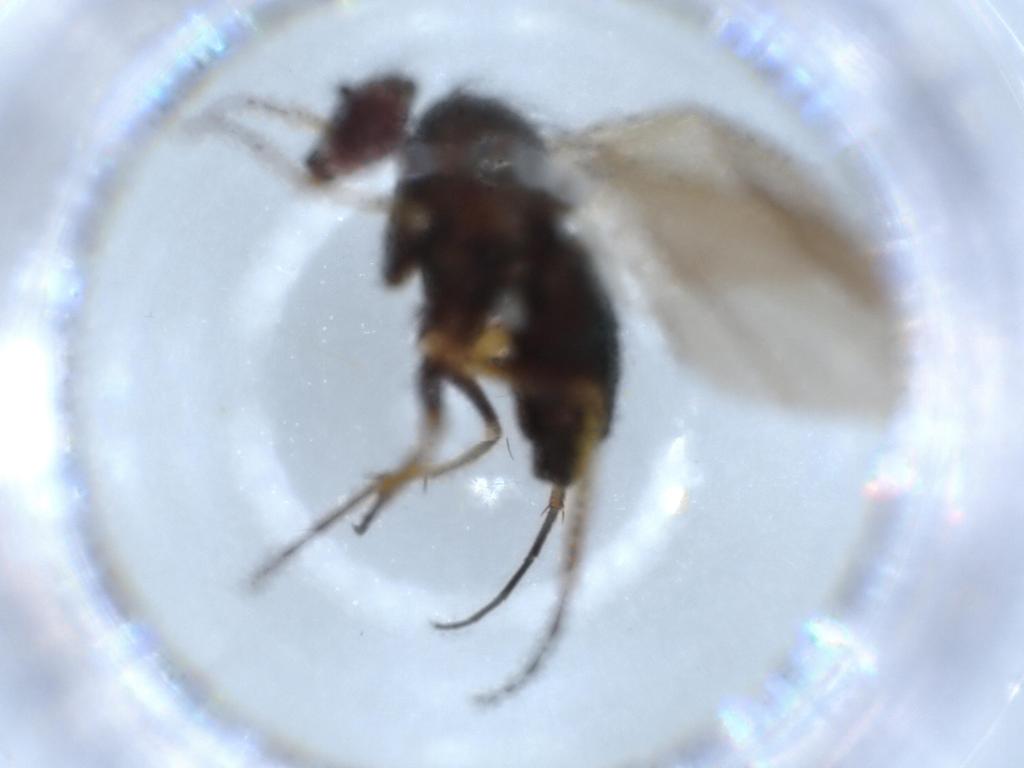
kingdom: Animalia
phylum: Arthropoda
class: Insecta
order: Diptera
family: Dolichopodidae
